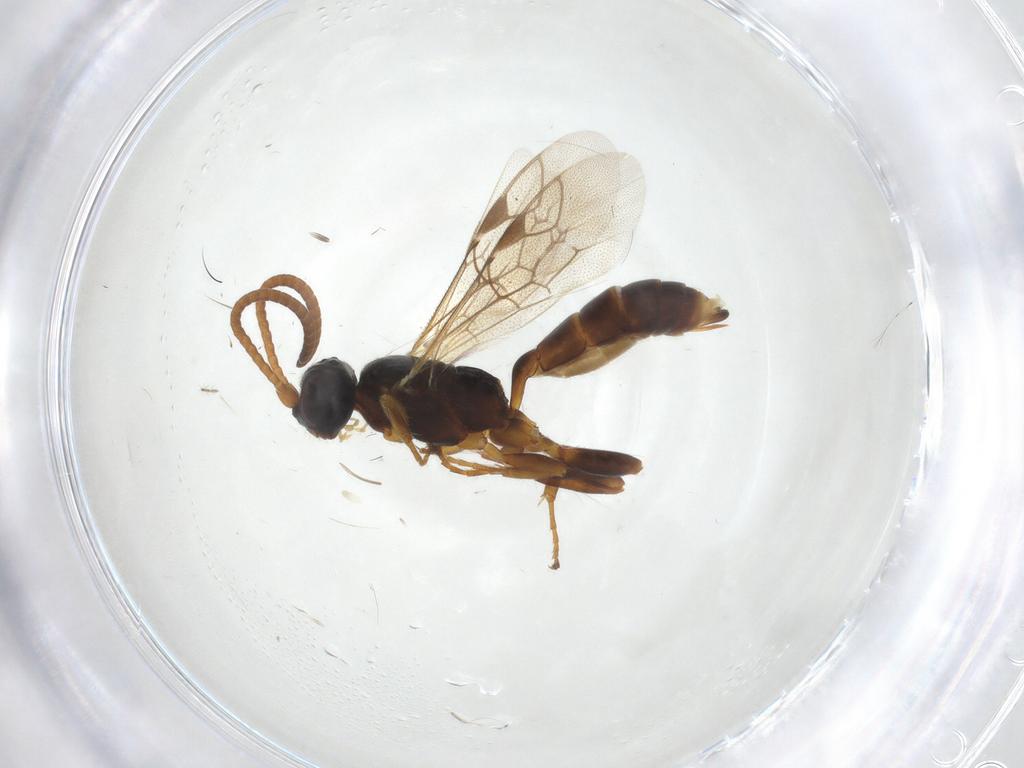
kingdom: Animalia
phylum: Arthropoda
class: Insecta
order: Hymenoptera
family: Ichneumonidae
